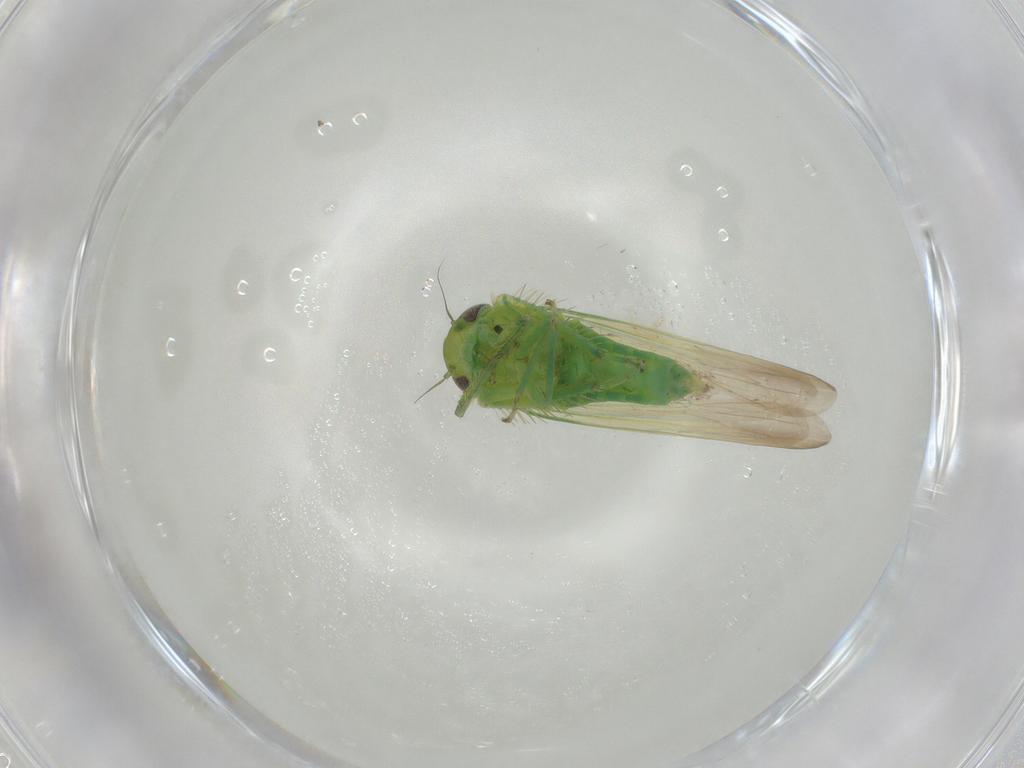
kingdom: Animalia
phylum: Arthropoda
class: Insecta
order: Hemiptera
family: Cicadellidae
